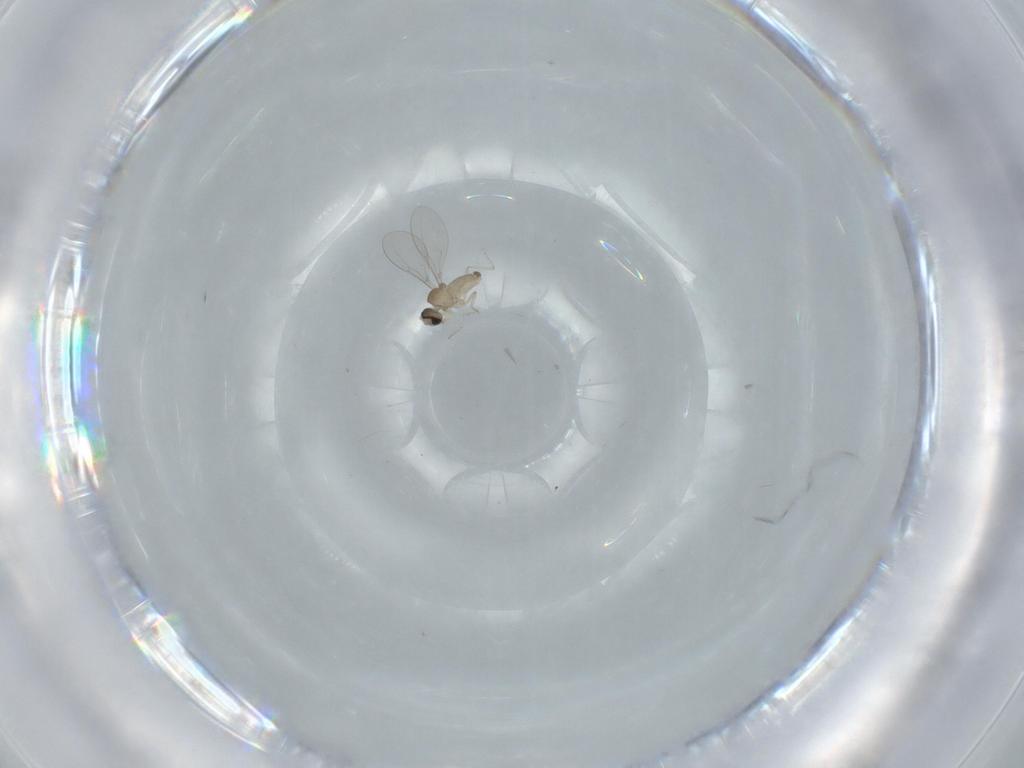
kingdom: Animalia
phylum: Arthropoda
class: Insecta
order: Diptera
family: Cecidomyiidae
